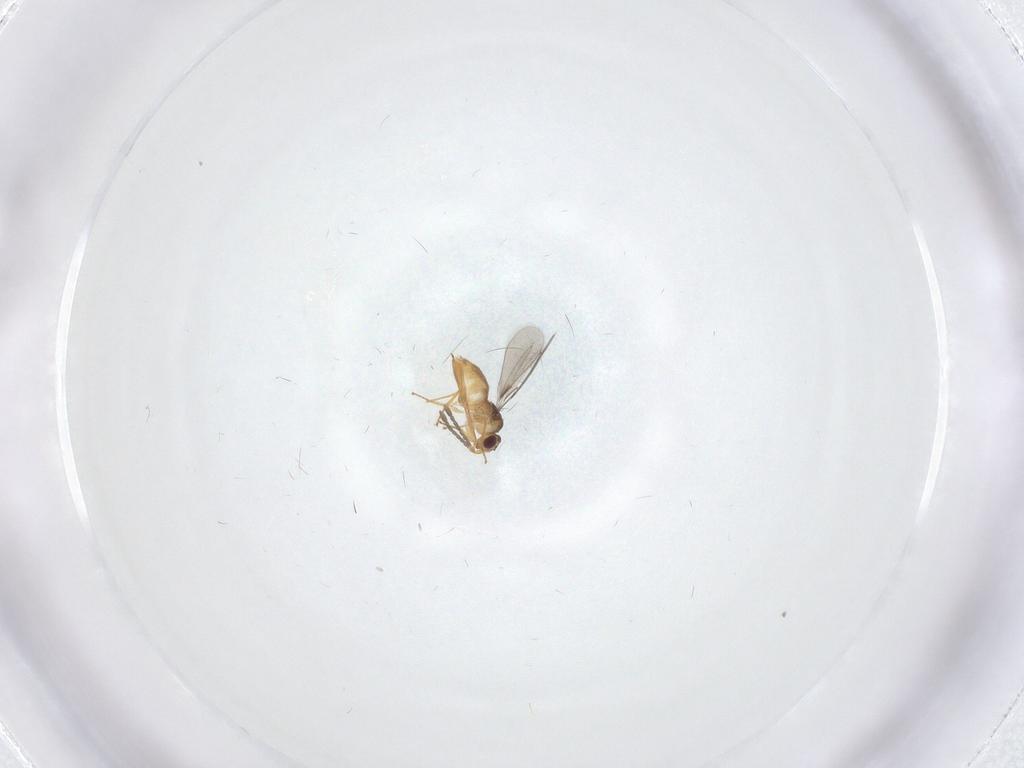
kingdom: Animalia
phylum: Arthropoda
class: Insecta
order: Hymenoptera
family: Mymaridae
